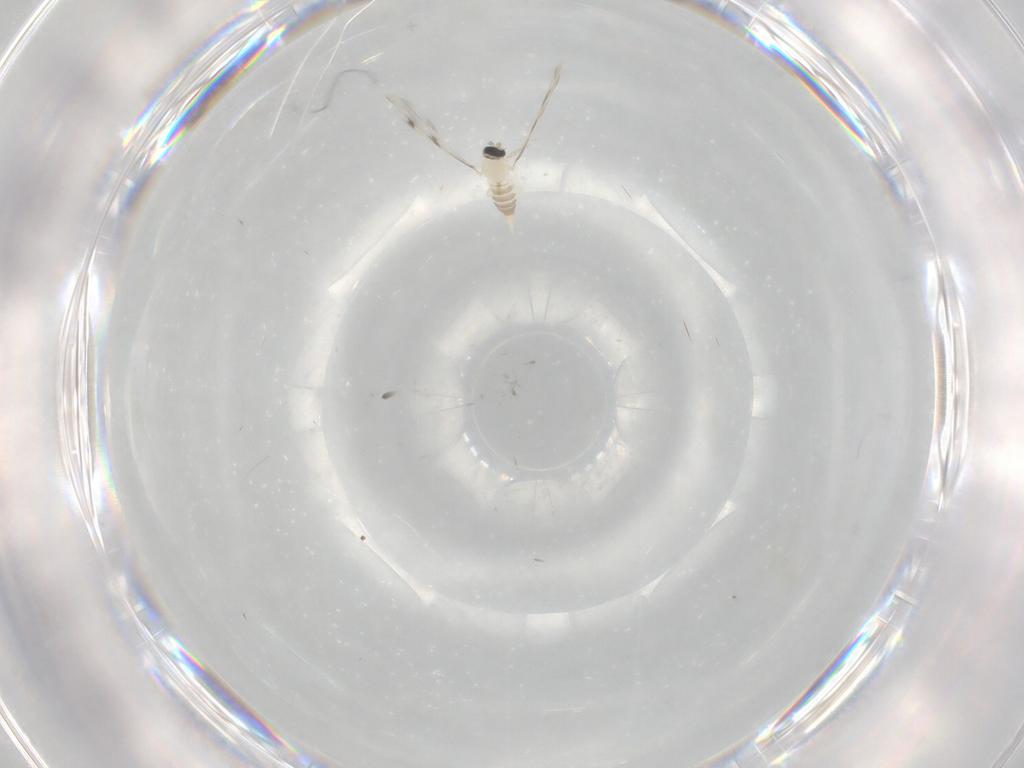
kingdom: Animalia
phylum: Arthropoda
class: Insecta
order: Diptera
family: Cecidomyiidae
